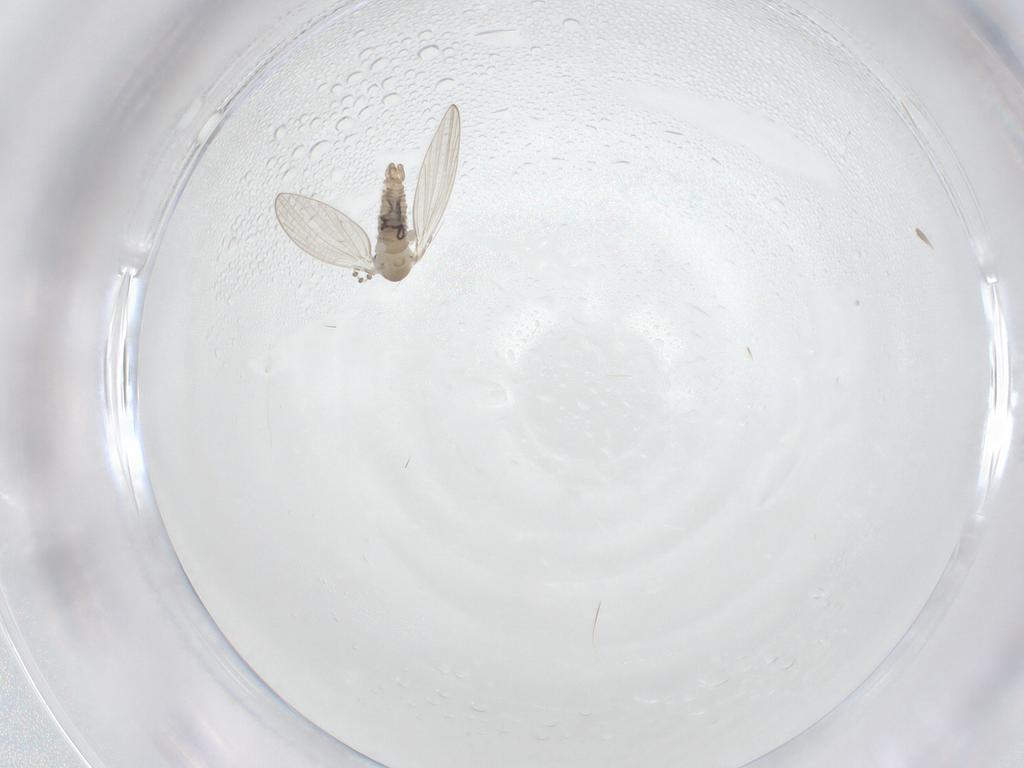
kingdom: Animalia
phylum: Arthropoda
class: Insecta
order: Diptera
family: Psychodidae
